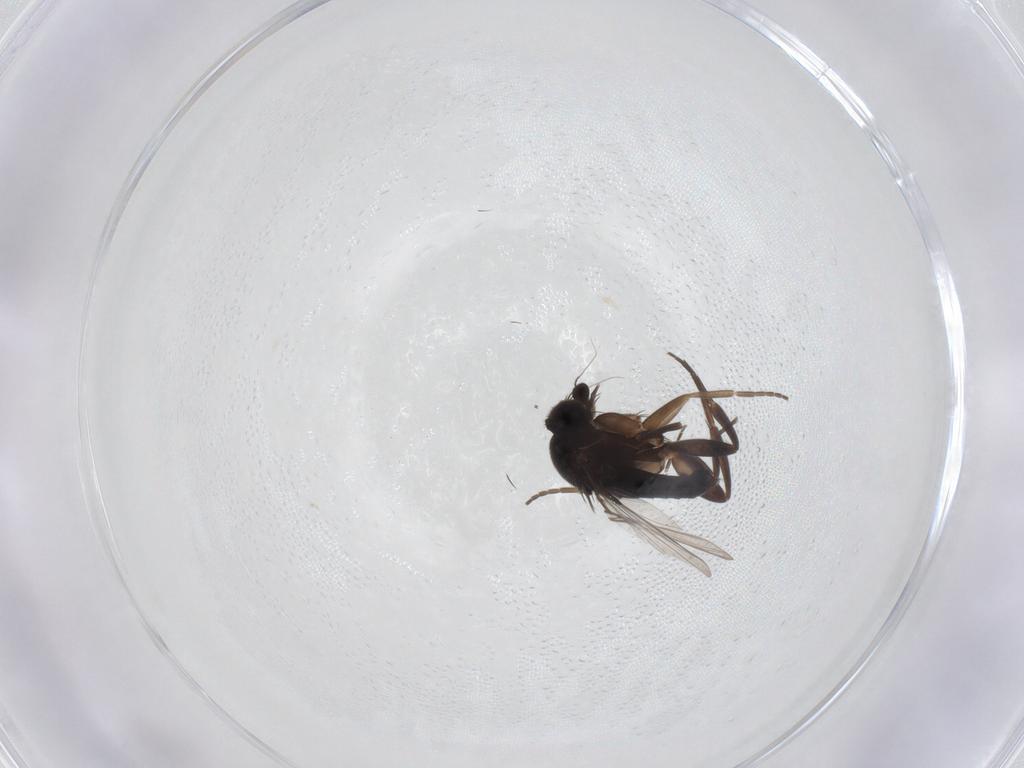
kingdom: Animalia
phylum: Arthropoda
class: Insecta
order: Diptera
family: Anthomyiidae
